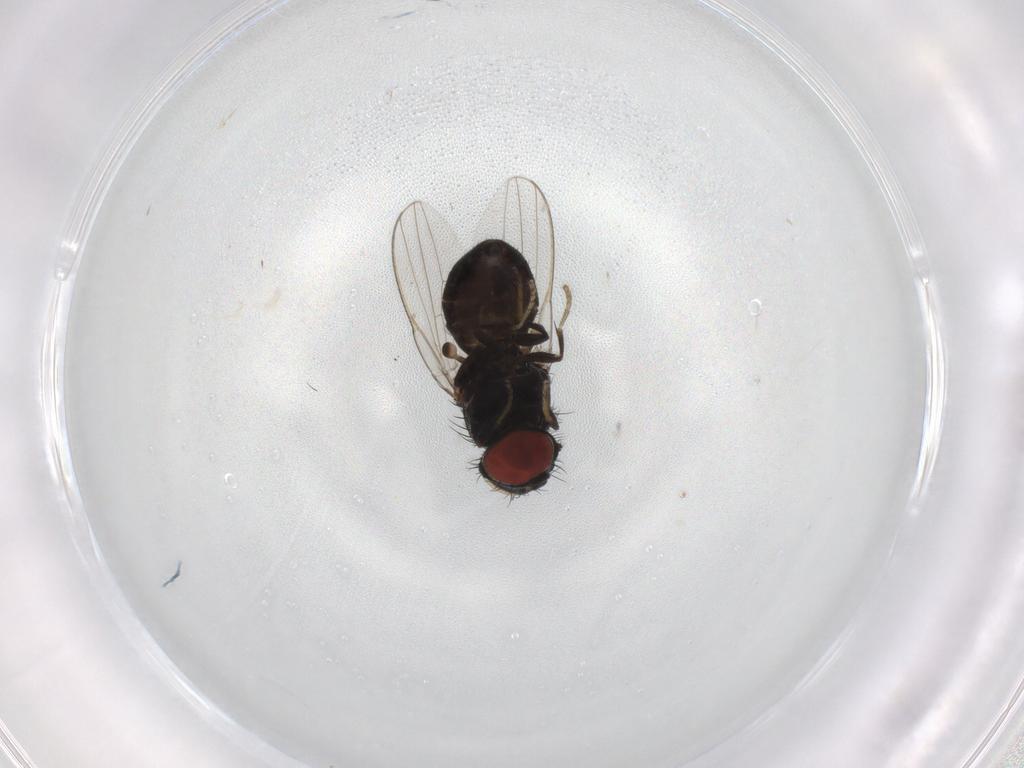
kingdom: Animalia
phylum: Arthropoda
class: Insecta
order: Diptera
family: Milichiidae
